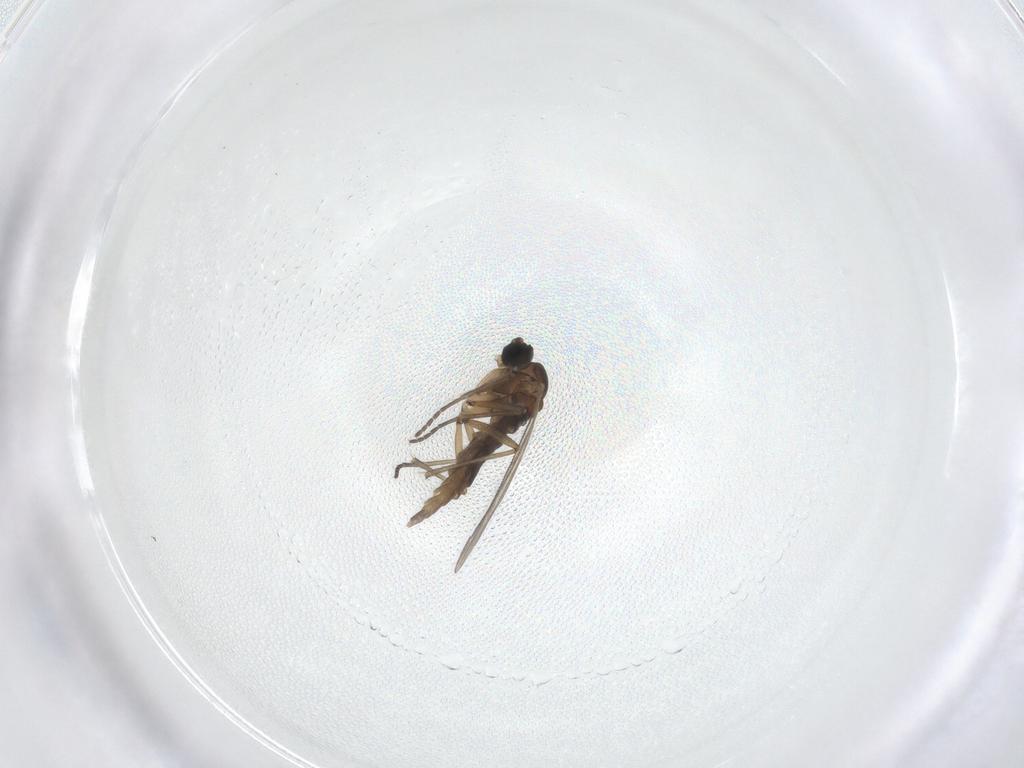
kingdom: Animalia
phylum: Arthropoda
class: Insecta
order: Diptera
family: Sciaridae
